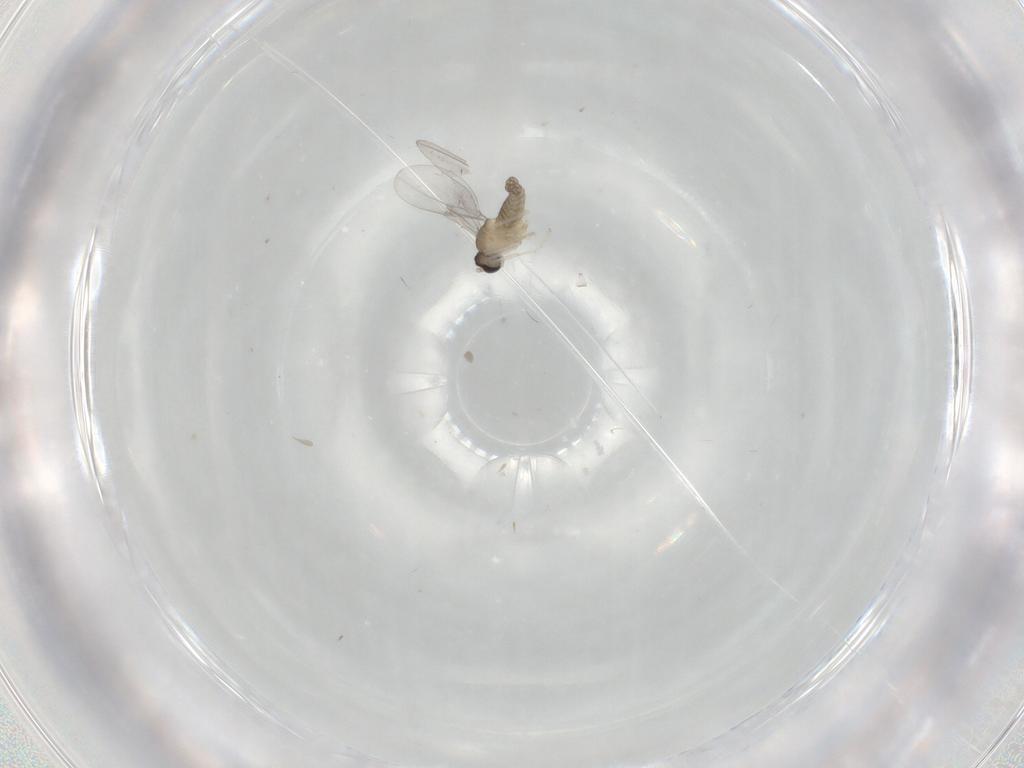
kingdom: Animalia
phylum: Arthropoda
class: Insecta
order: Diptera
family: Cecidomyiidae
